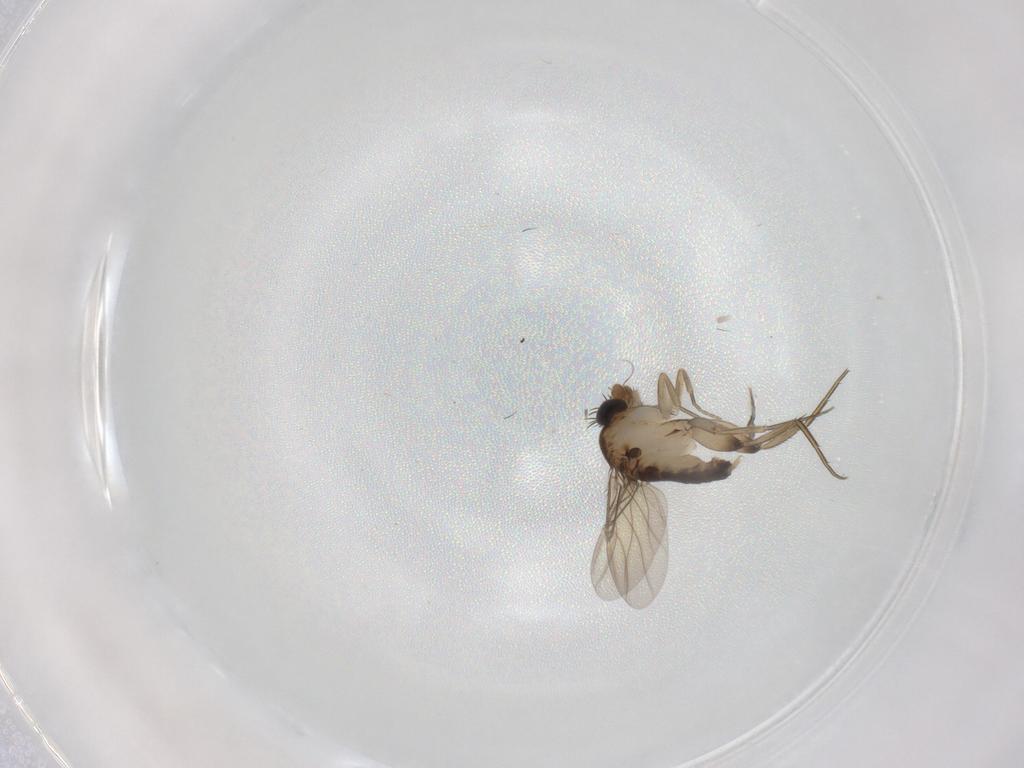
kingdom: Animalia
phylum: Arthropoda
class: Insecta
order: Diptera
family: Phoridae
